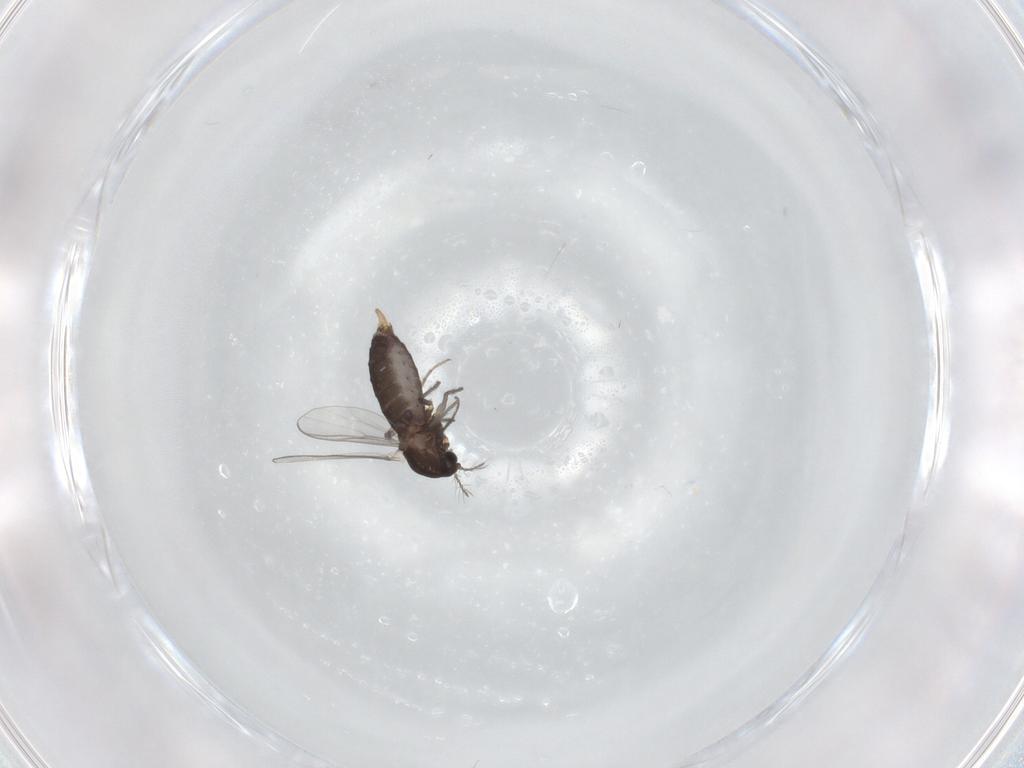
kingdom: Animalia
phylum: Arthropoda
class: Insecta
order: Diptera
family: Chironomidae
